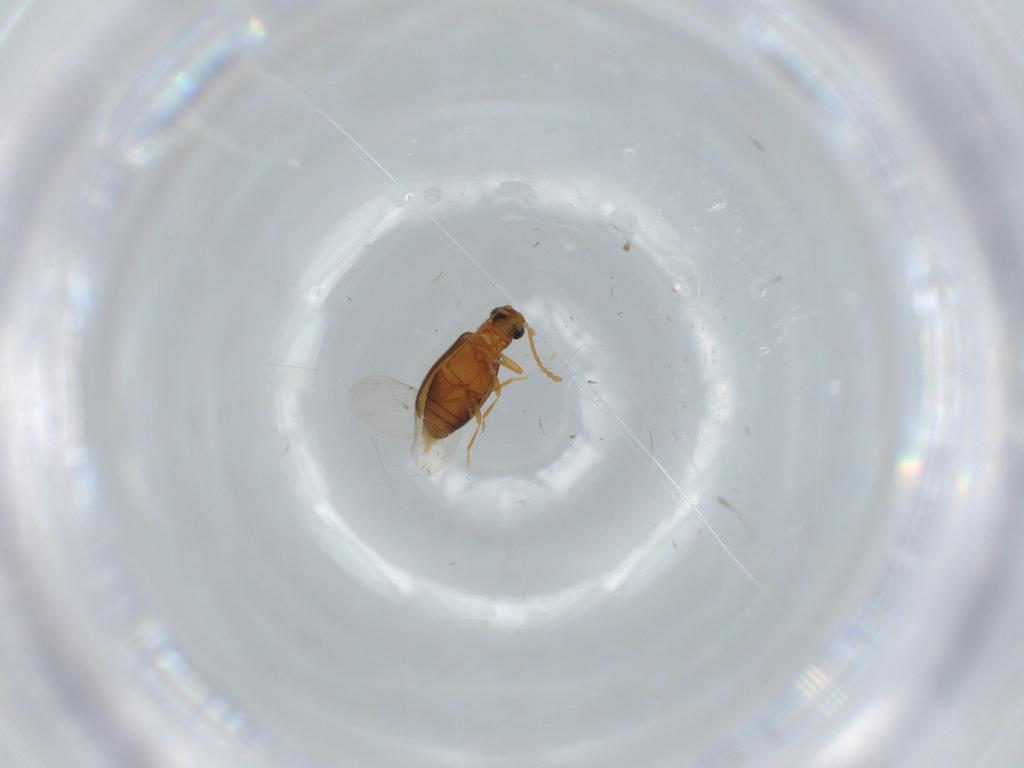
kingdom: Animalia
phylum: Arthropoda
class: Insecta
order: Coleoptera
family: Aderidae
